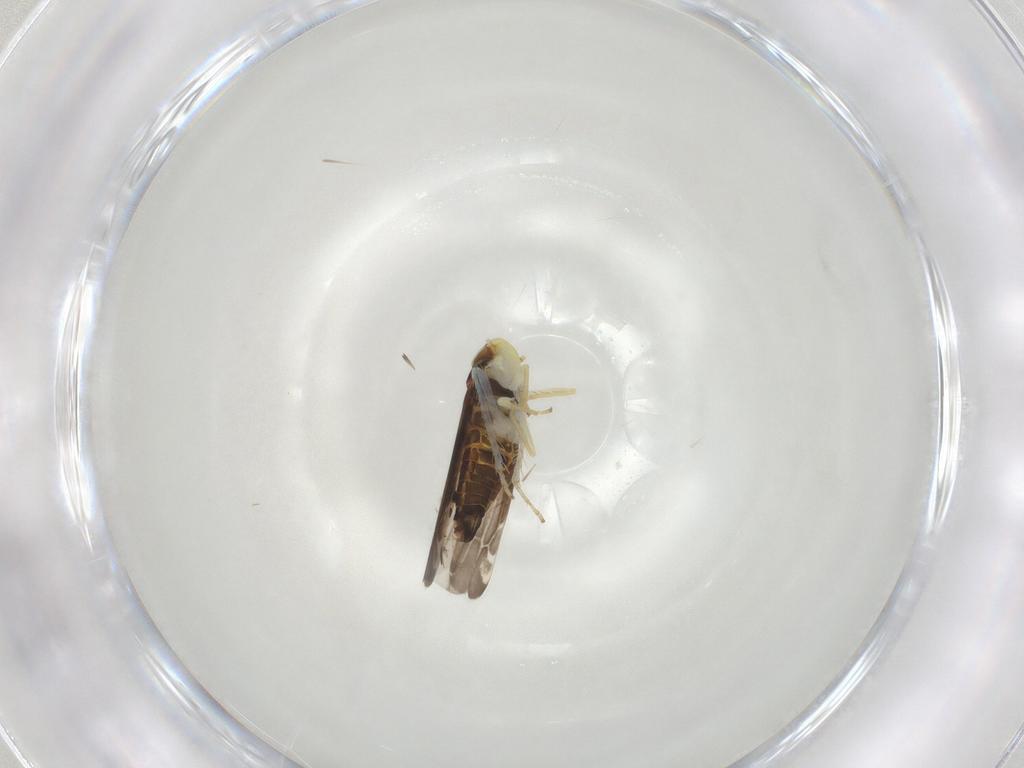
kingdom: Animalia
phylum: Arthropoda
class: Insecta
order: Hemiptera
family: Cicadellidae
